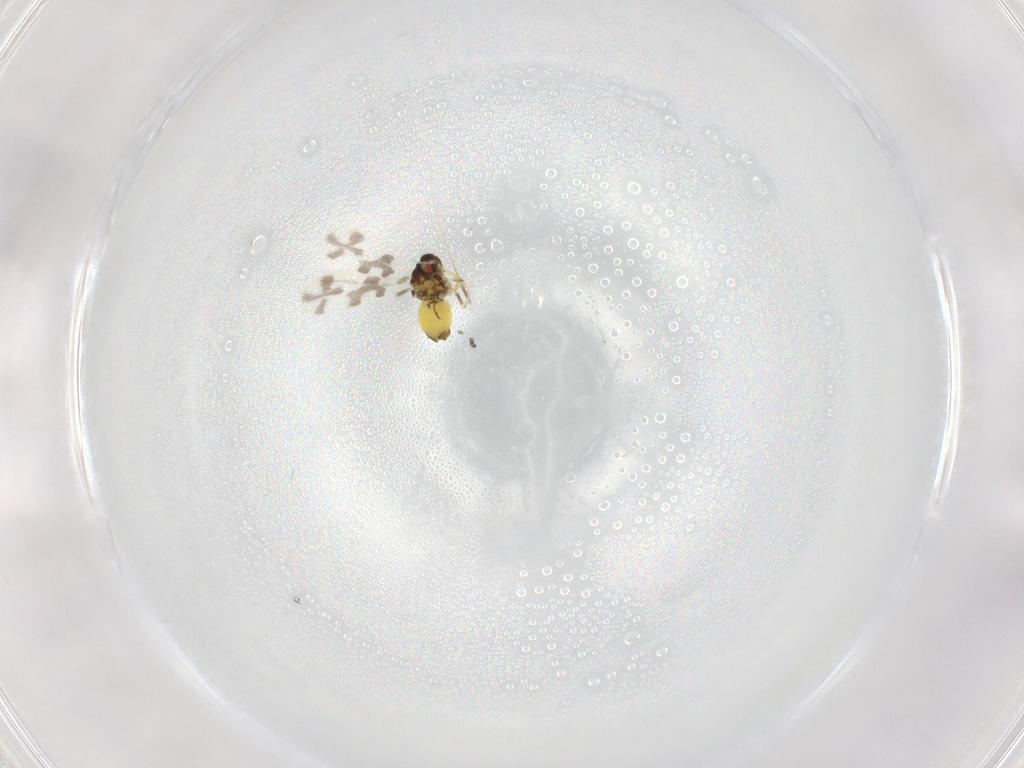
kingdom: Animalia
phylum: Arthropoda
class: Insecta
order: Hemiptera
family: Aleyrodidae
